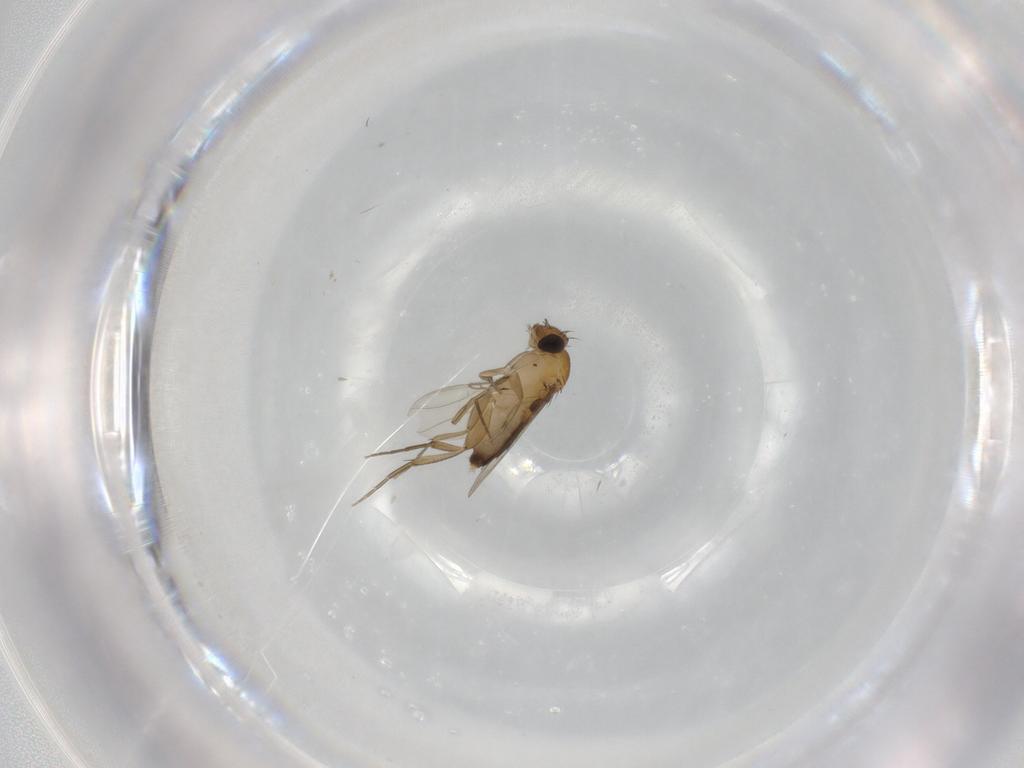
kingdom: Animalia
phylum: Arthropoda
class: Insecta
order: Diptera
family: Phoridae
